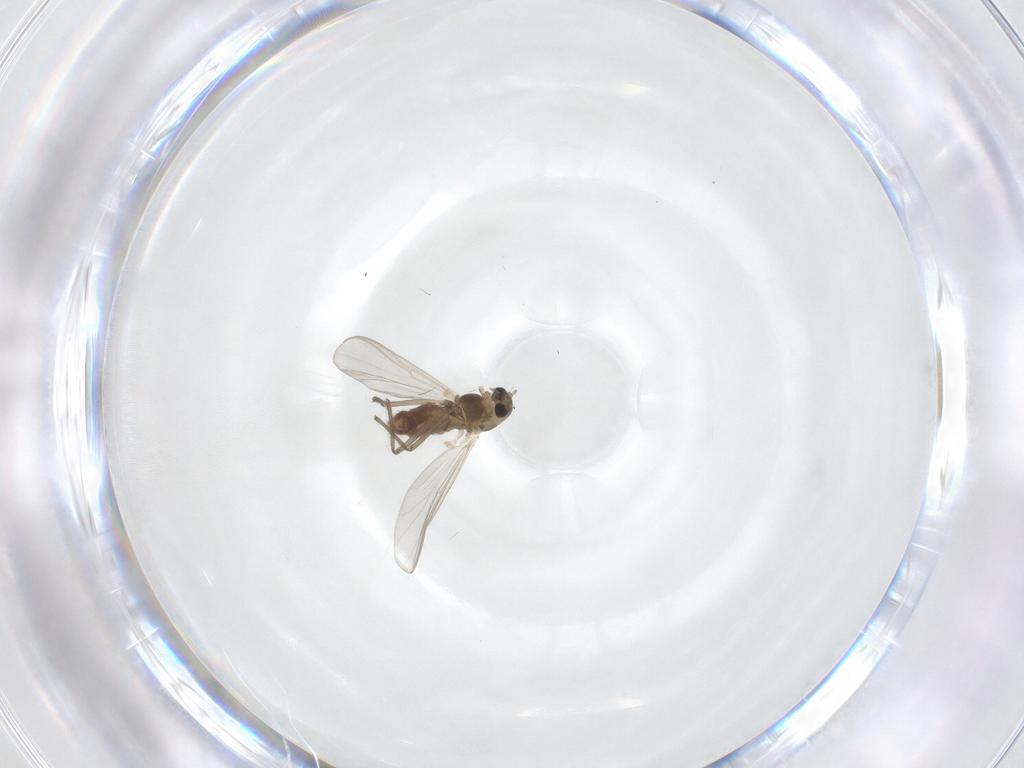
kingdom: Animalia
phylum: Arthropoda
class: Insecta
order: Diptera
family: Chironomidae
